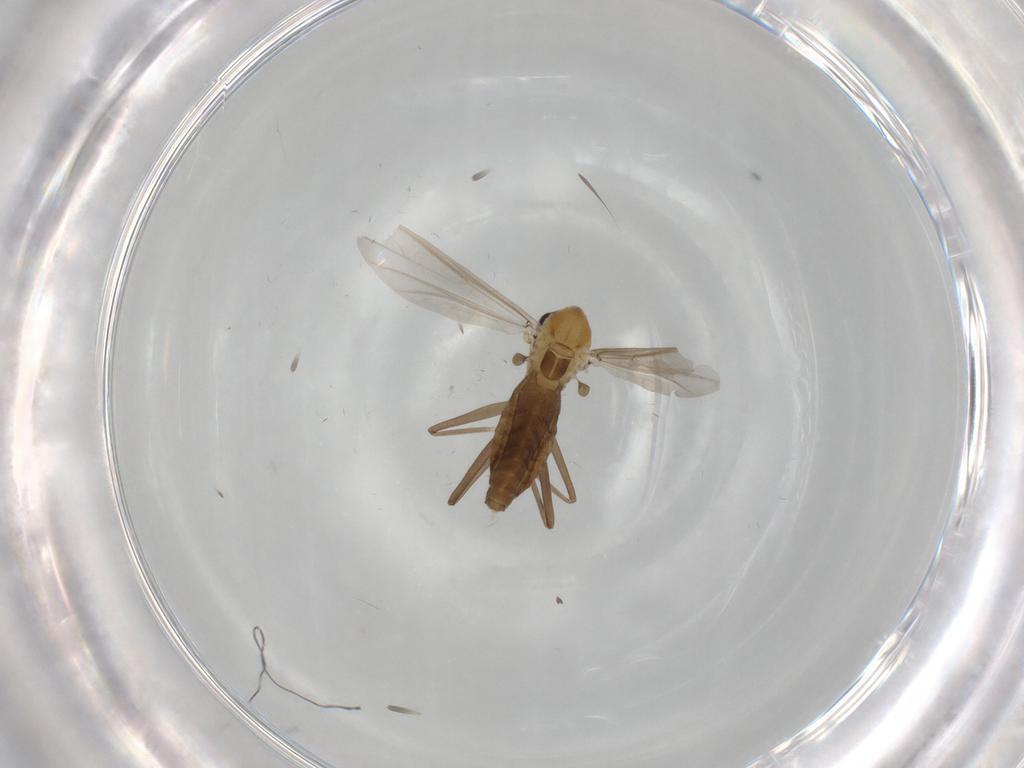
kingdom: Animalia
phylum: Arthropoda
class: Insecta
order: Diptera
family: Chironomidae
